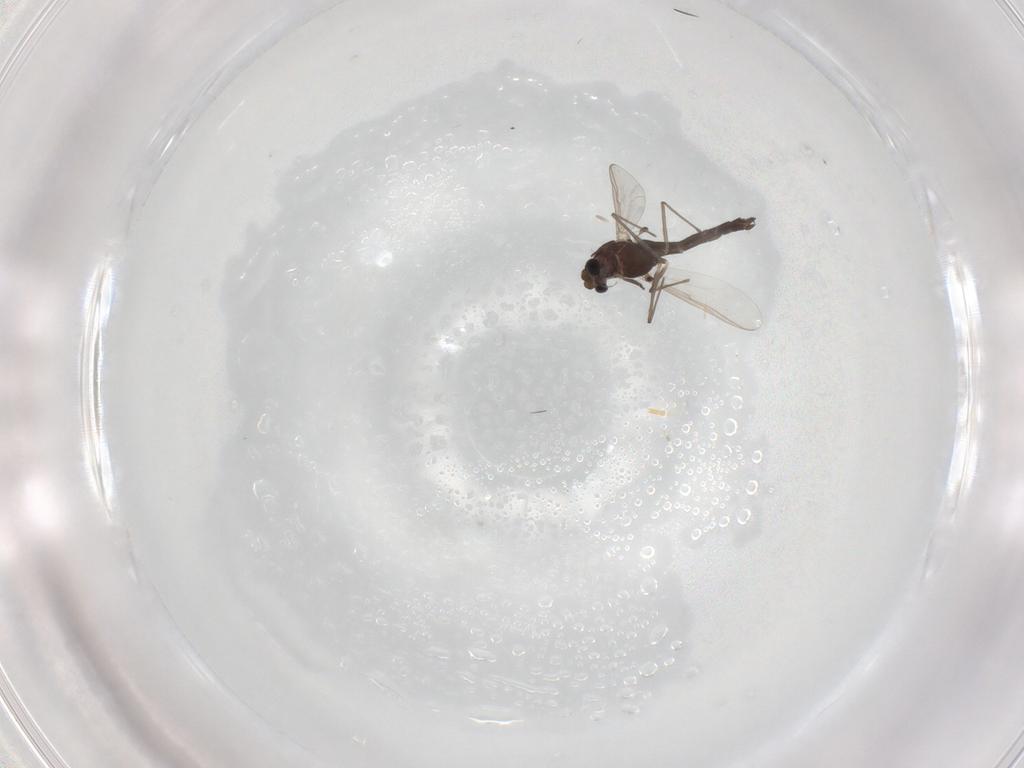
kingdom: Animalia
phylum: Arthropoda
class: Insecta
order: Diptera
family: Chironomidae
